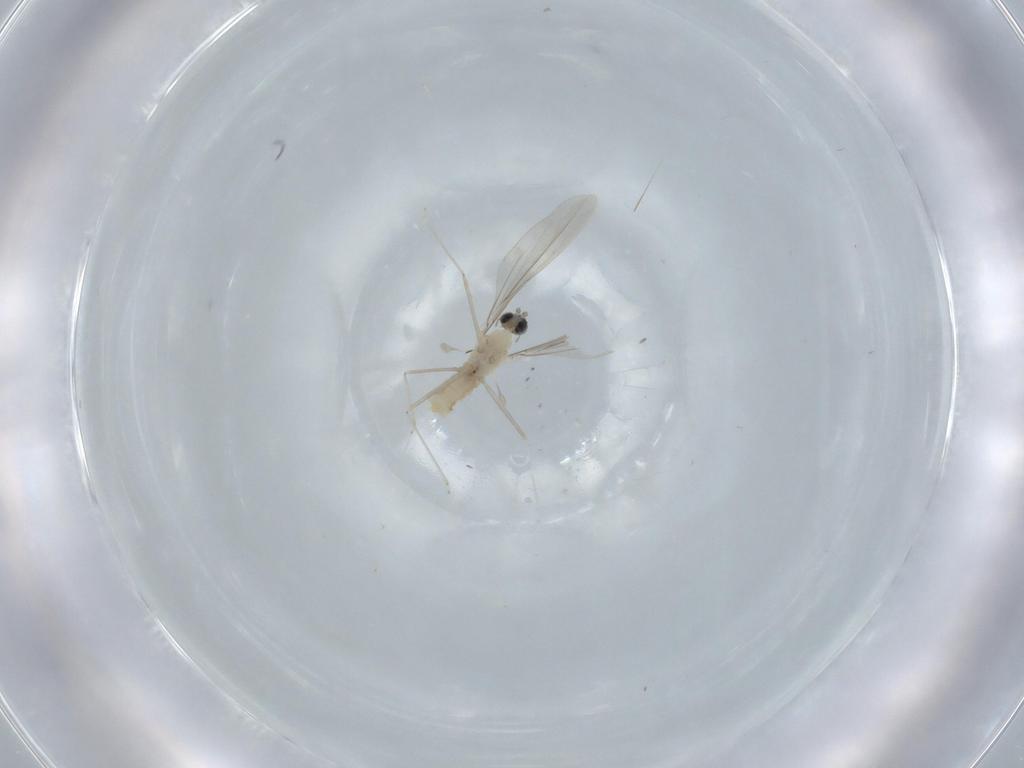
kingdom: Animalia
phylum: Arthropoda
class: Insecta
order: Diptera
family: Cecidomyiidae
